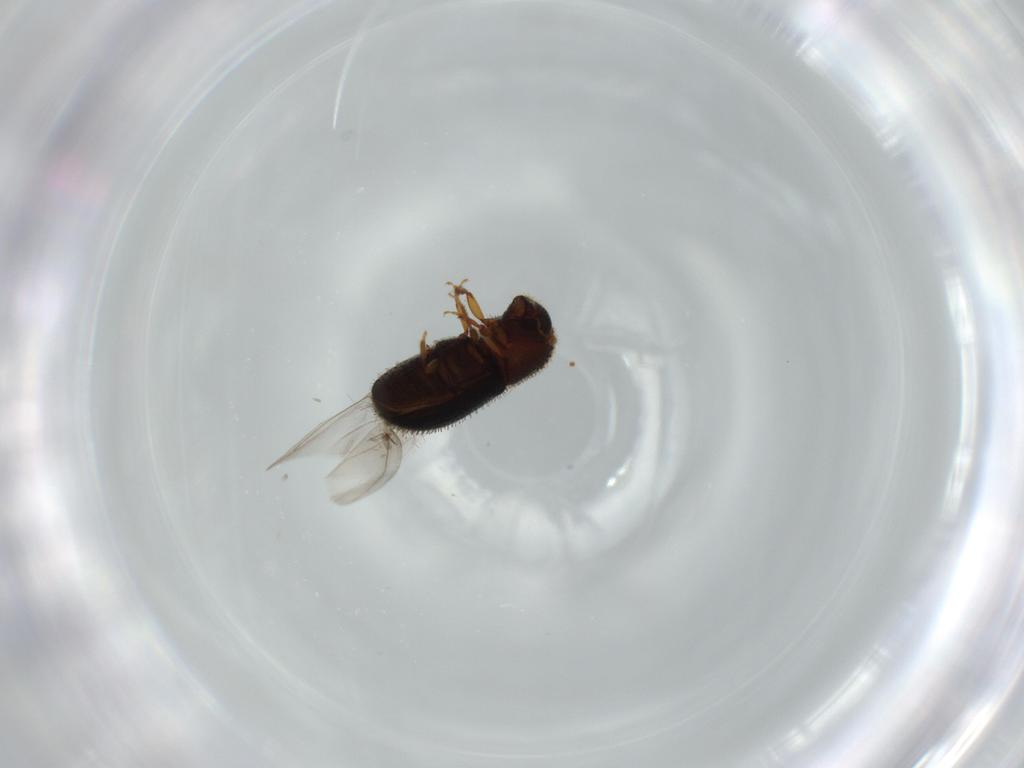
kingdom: Animalia
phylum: Arthropoda
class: Insecta
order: Coleoptera
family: Curculionidae
